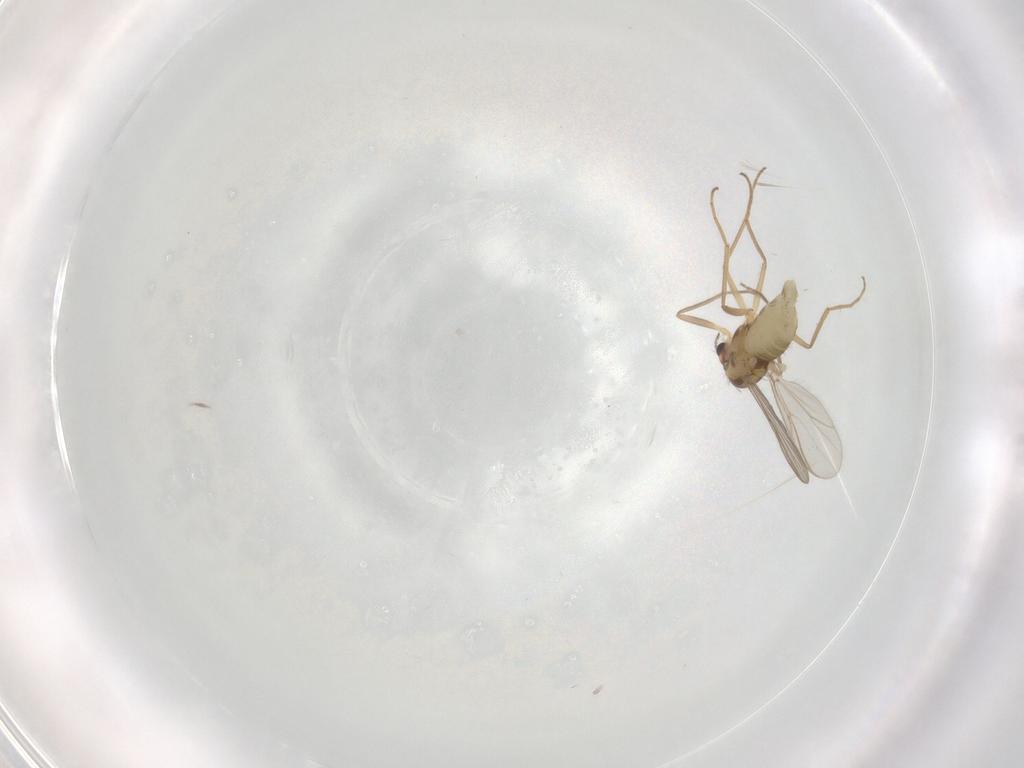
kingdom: Animalia
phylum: Arthropoda
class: Insecta
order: Diptera
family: Chironomidae
